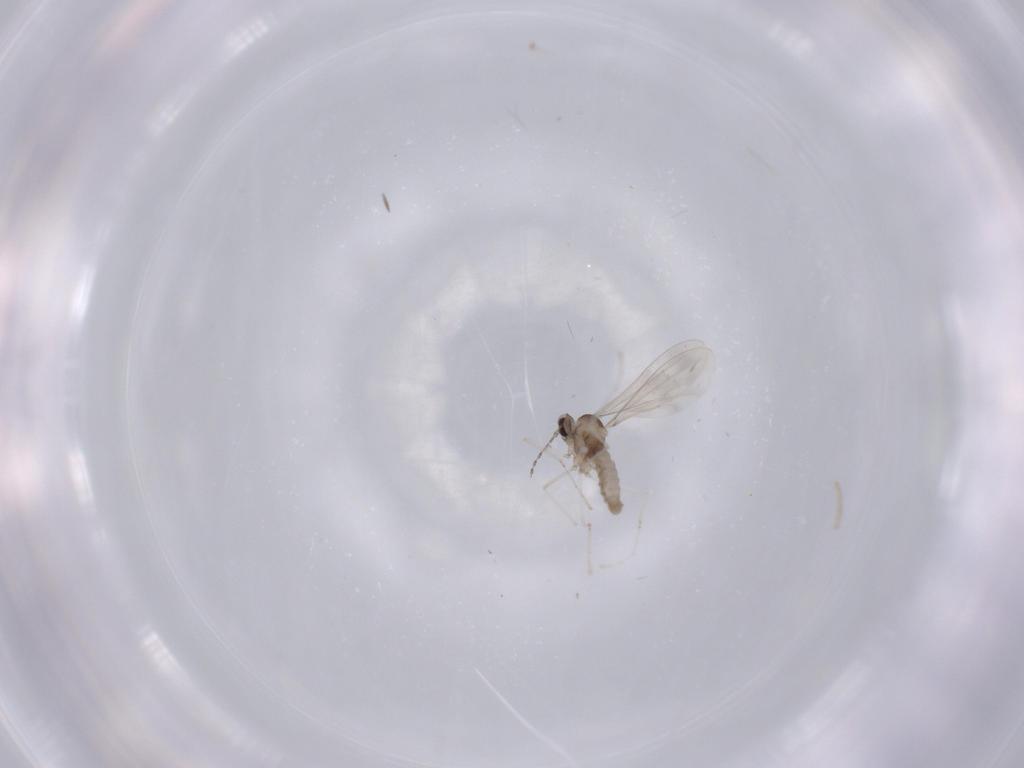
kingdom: Animalia
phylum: Arthropoda
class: Insecta
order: Diptera
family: Cecidomyiidae
